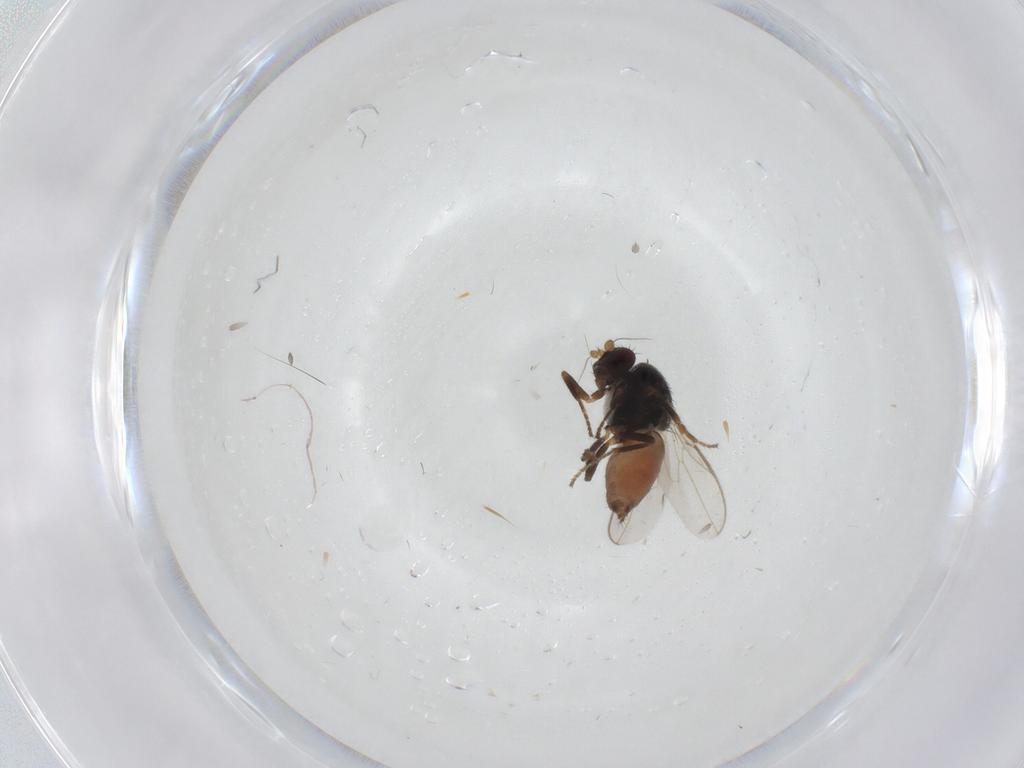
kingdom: Animalia
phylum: Arthropoda
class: Insecta
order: Diptera
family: Sphaeroceridae
